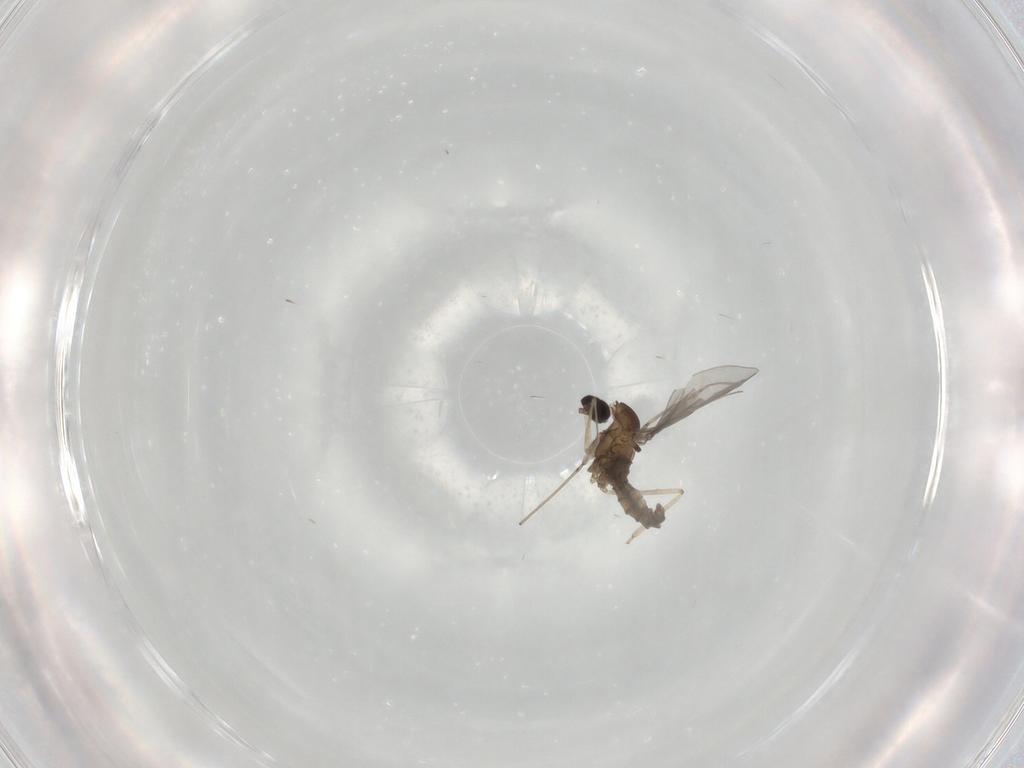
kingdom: Animalia
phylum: Arthropoda
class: Insecta
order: Diptera
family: Cecidomyiidae
